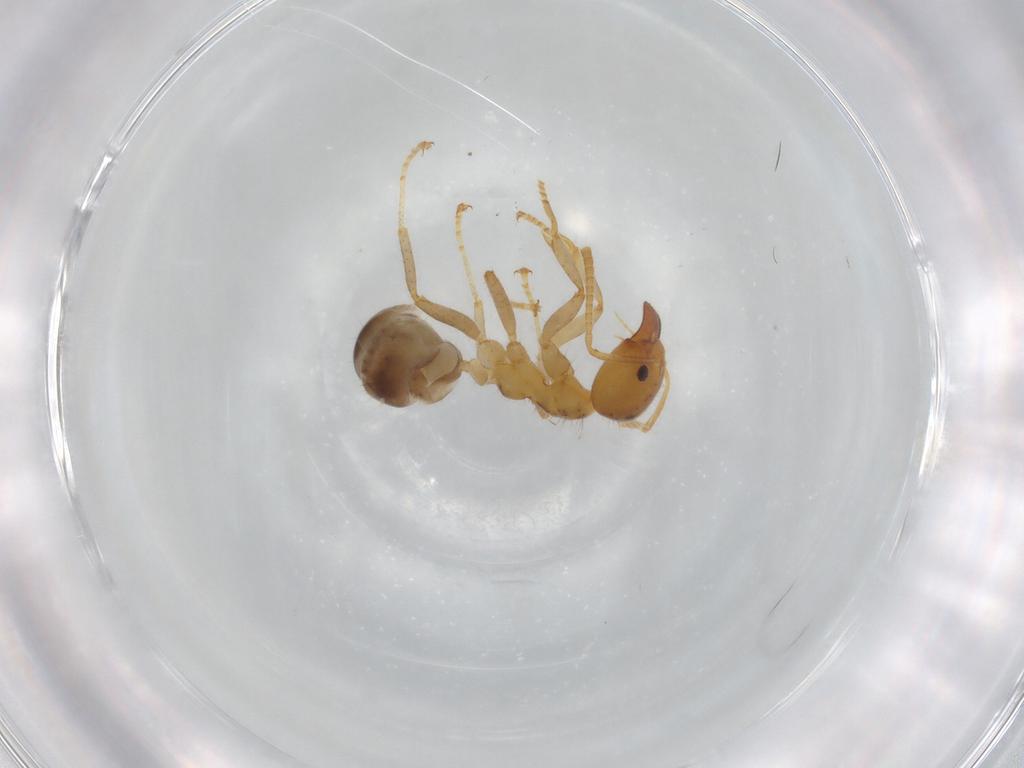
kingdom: Animalia
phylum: Arthropoda
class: Insecta
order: Hymenoptera
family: Formicidae
